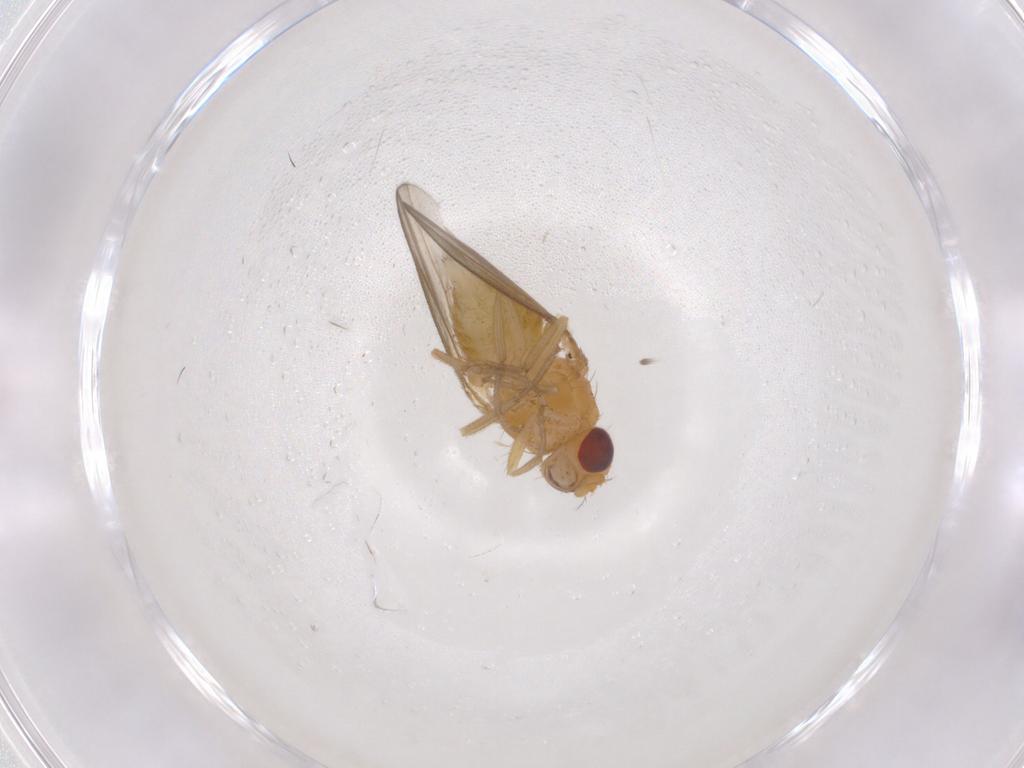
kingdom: Animalia
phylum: Arthropoda
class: Insecta
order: Diptera
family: Drosophilidae
